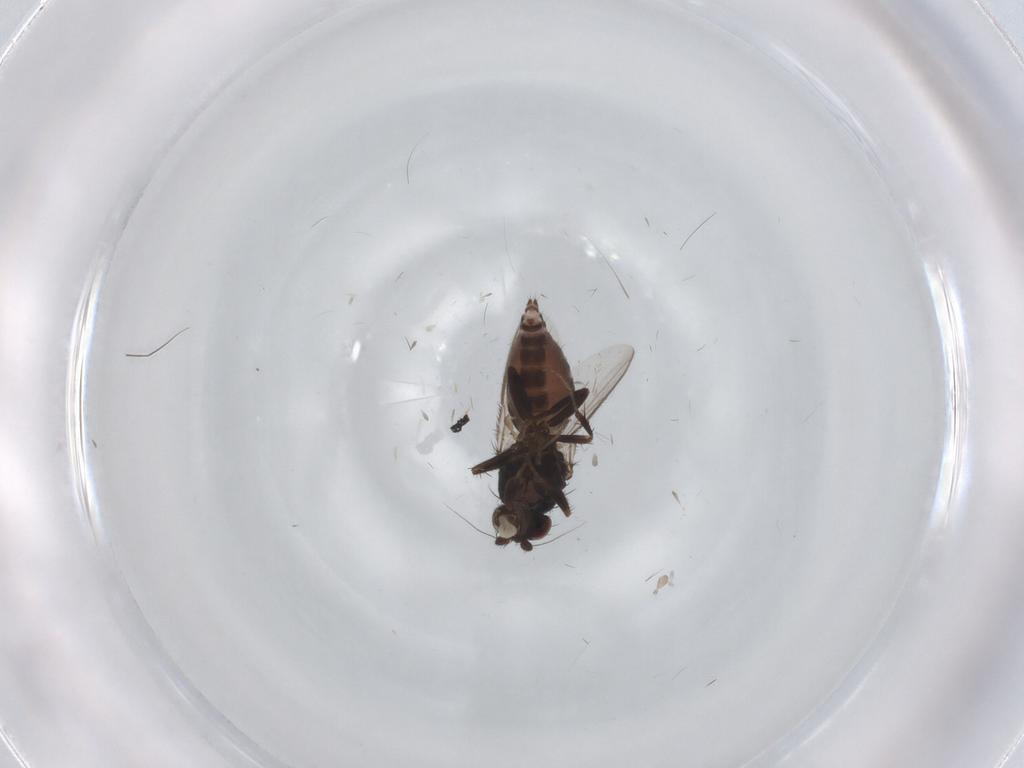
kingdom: Animalia
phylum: Arthropoda
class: Insecta
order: Diptera
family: Sphaeroceridae
